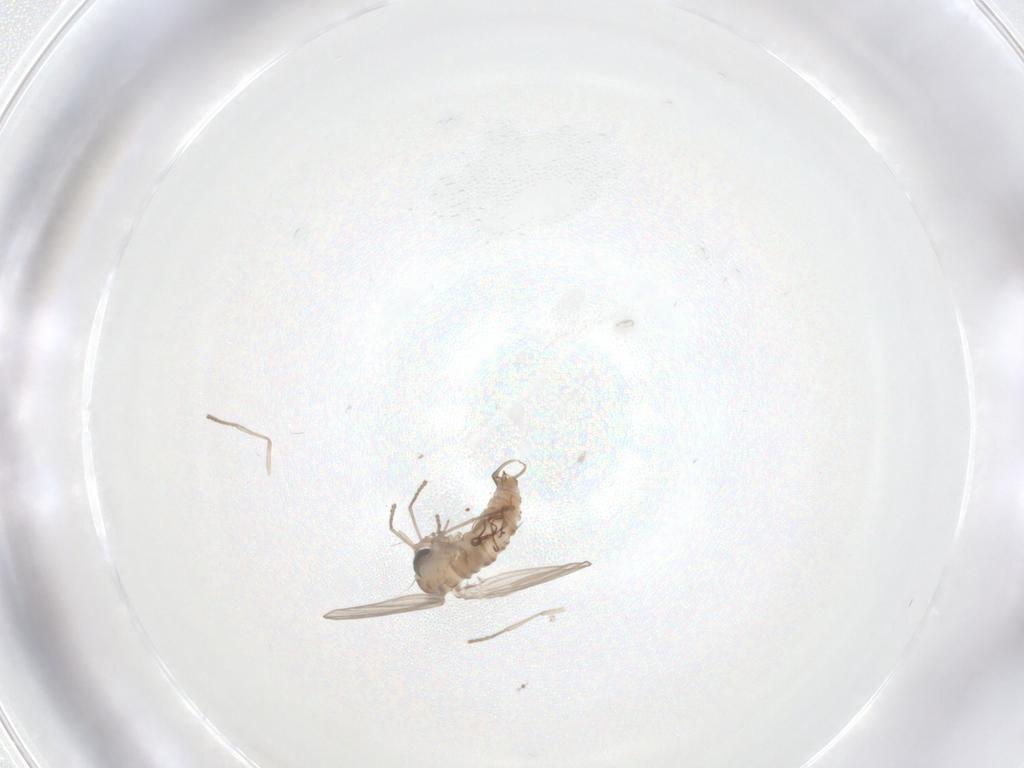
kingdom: Animalia
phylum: Arthropoda
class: Insecta
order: Diptera
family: Psychodidae
